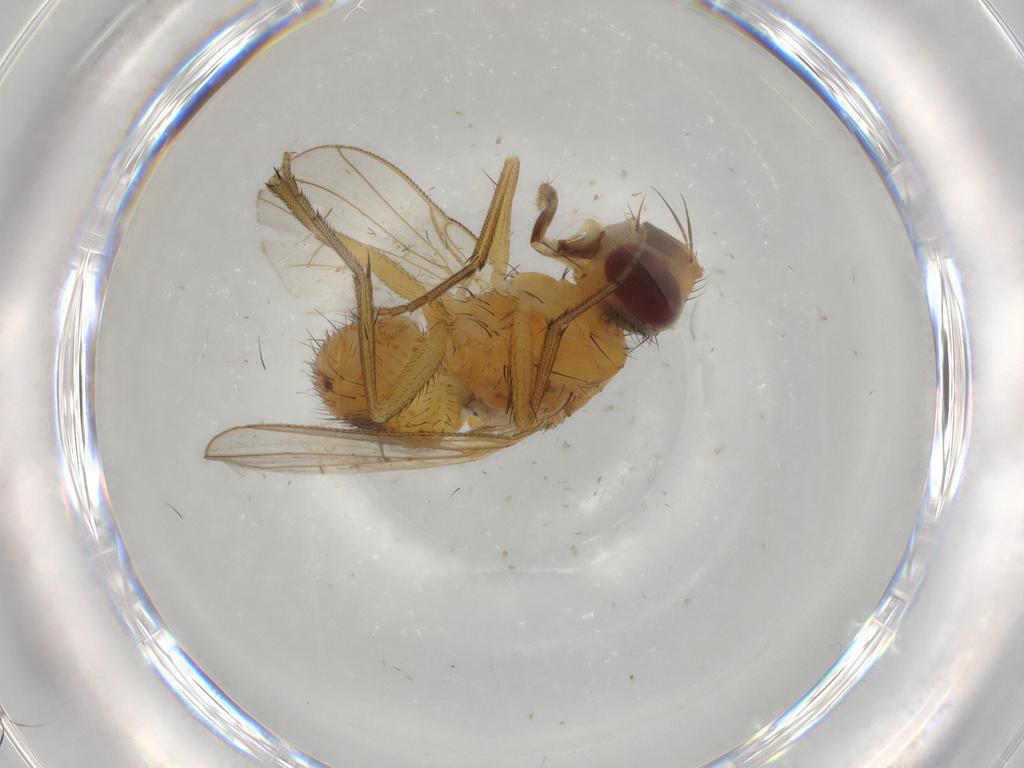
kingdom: Animalia
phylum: Arthropoda
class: Insecta
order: Diptera
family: Muscidae
